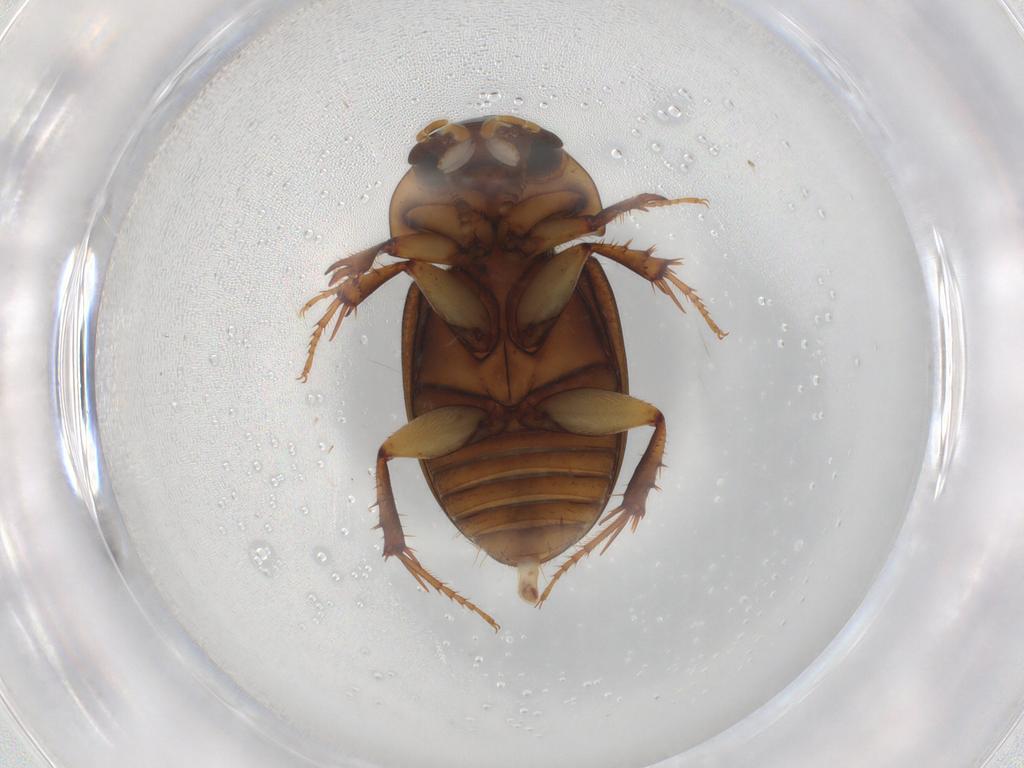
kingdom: Animalia
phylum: Arthropoda
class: Insecta
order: Coleoptera
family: Scarabaeidae
